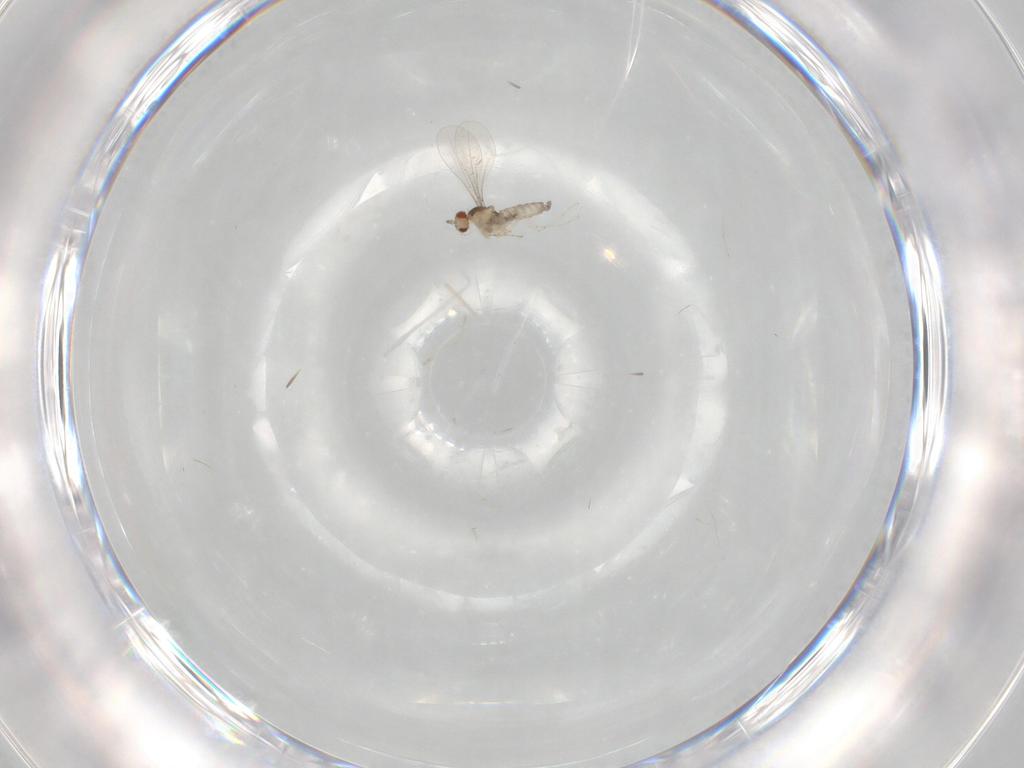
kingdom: Animalia
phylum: Arthropoda
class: Insecta
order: Diptera
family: Cecidomyiidae
